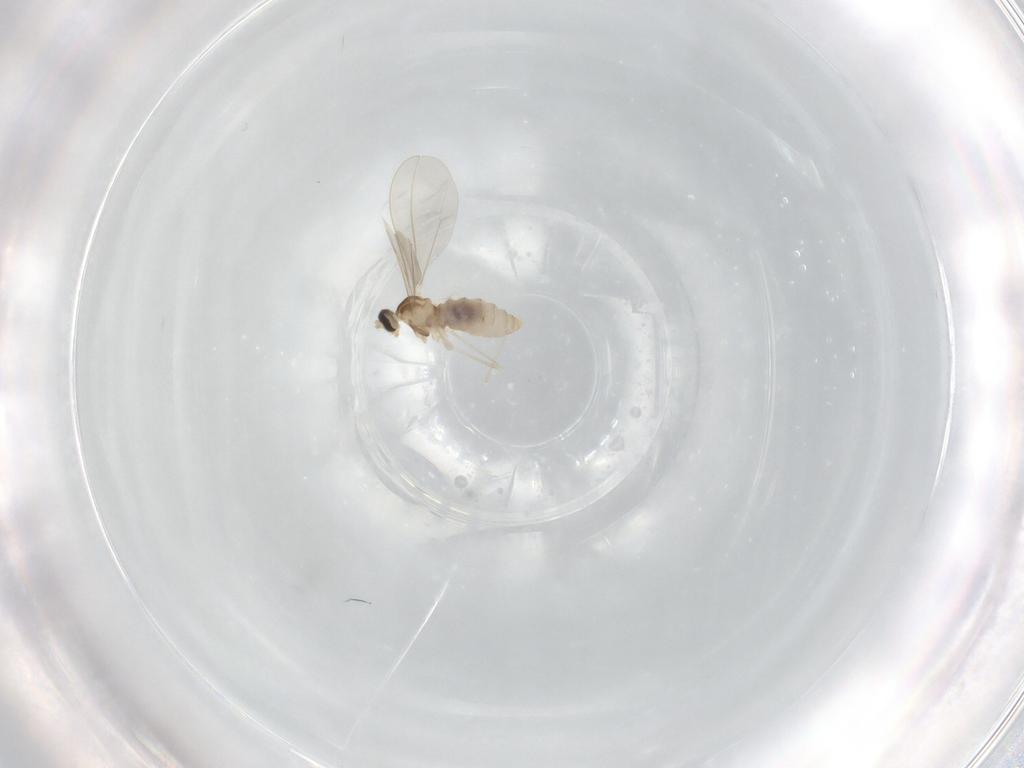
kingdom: Animalia
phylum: Arthropoda
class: Insecta
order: Diptera
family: Cecidomyiidae
